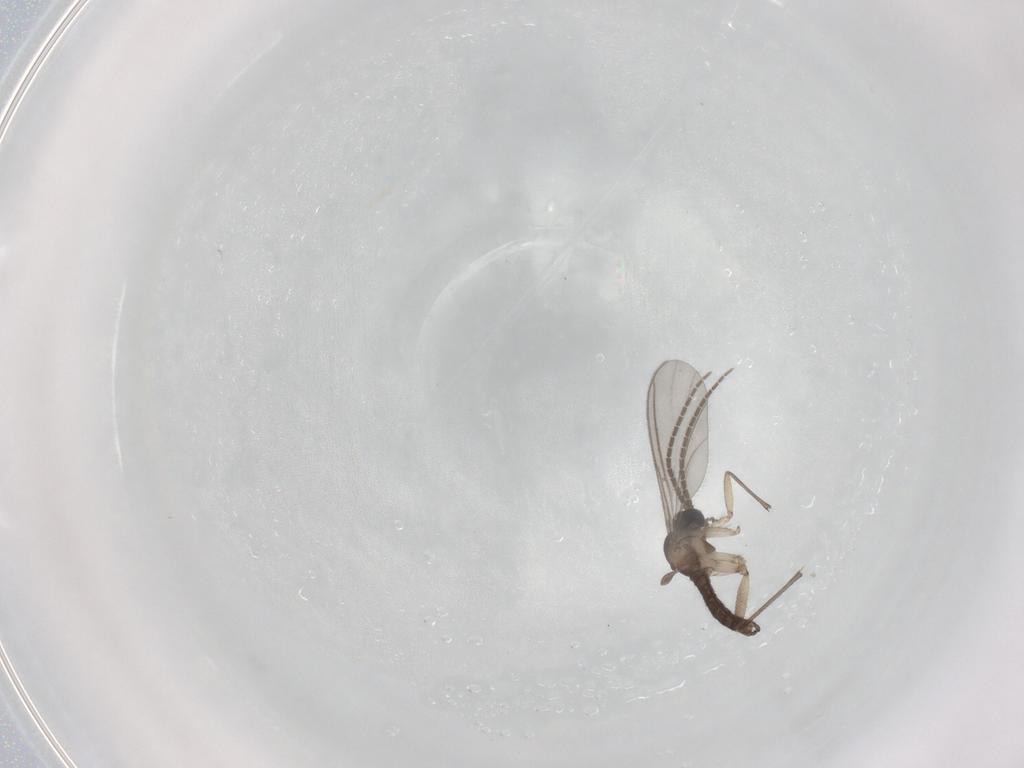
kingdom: Animalia
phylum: Arthropoda
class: Insecta
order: Diptera
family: Sciaridae
